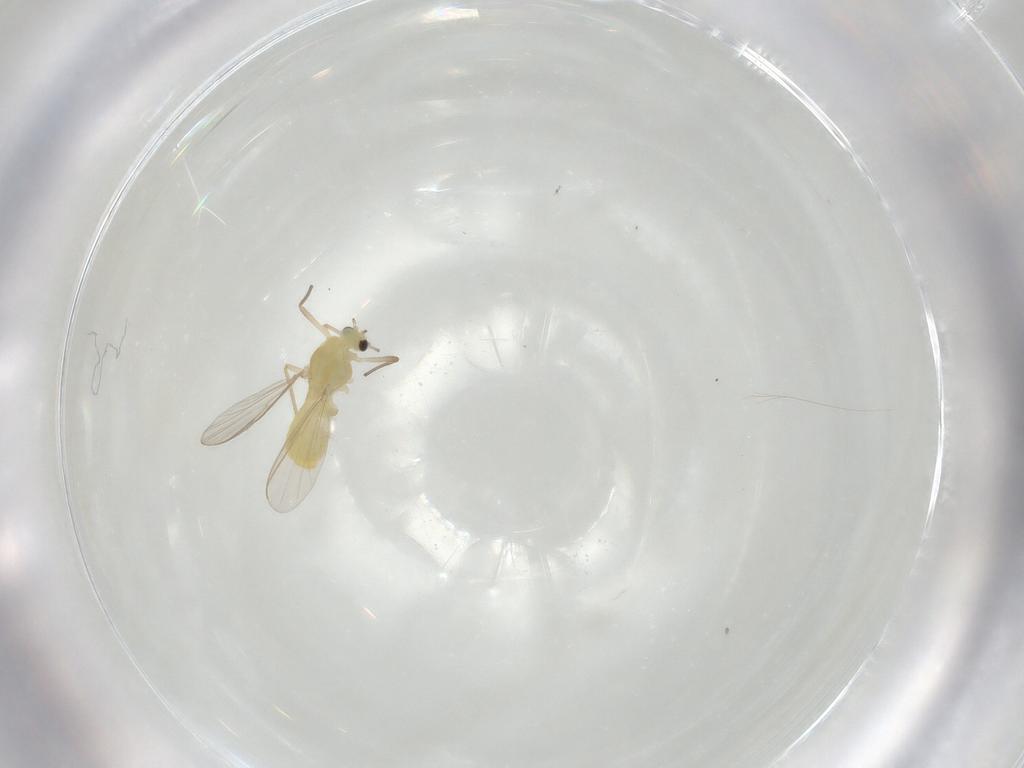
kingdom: Animalia
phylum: Arthropoda
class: Insecta
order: Diptera
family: Chironomidae
